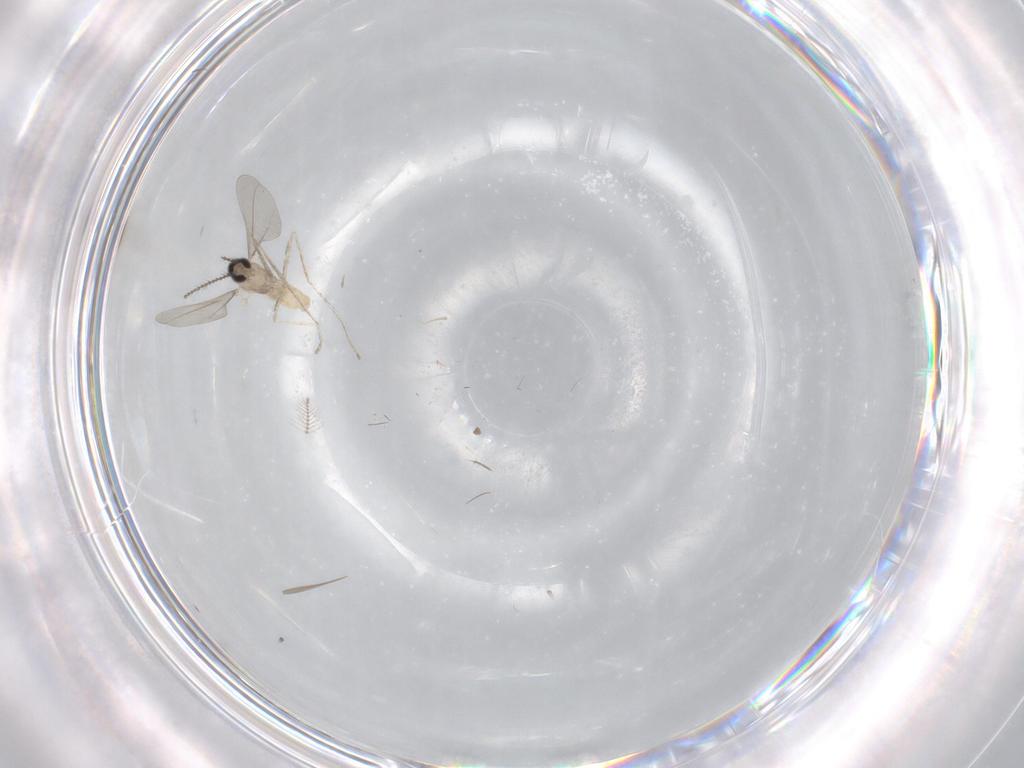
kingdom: Animalia
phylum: Arthropoda
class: Insecta
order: Diptera
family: Cecidomyiidae
